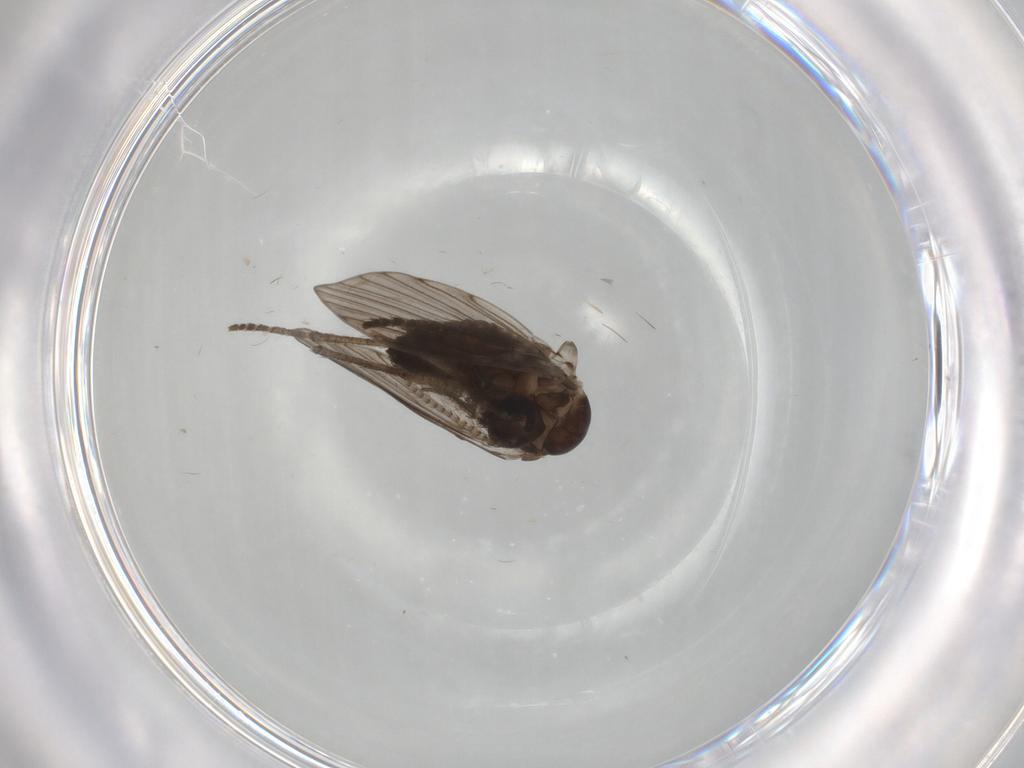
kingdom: Animalia
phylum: Arthropoda
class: Insecta
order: Diptera
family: Psychodidae
